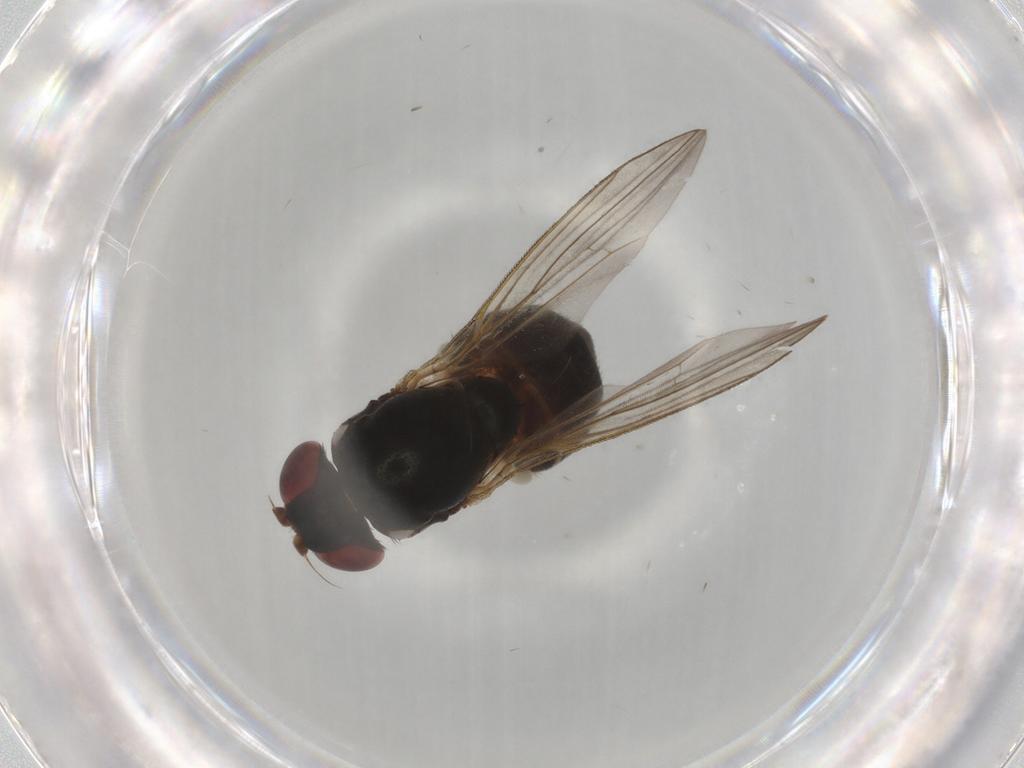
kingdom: Animalia
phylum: Arthropoda
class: Insecta
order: Diptera
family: Drosophilidae
